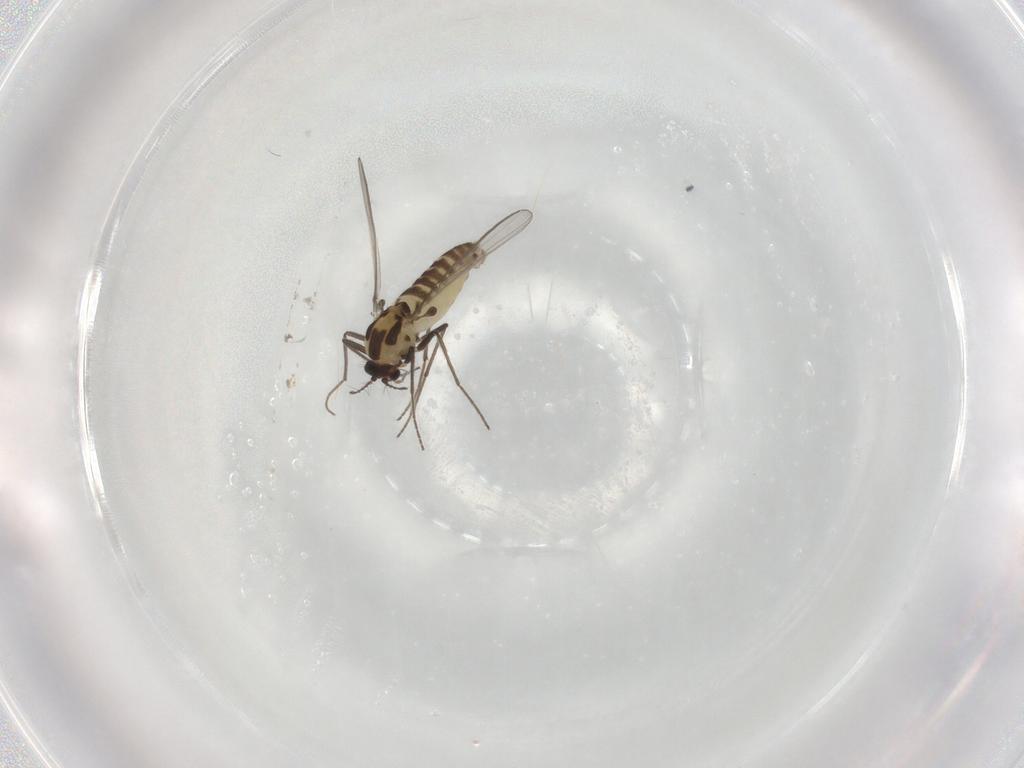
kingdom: Animalia
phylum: Arthropoda
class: Insecta
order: Diptera
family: Chironomidae
